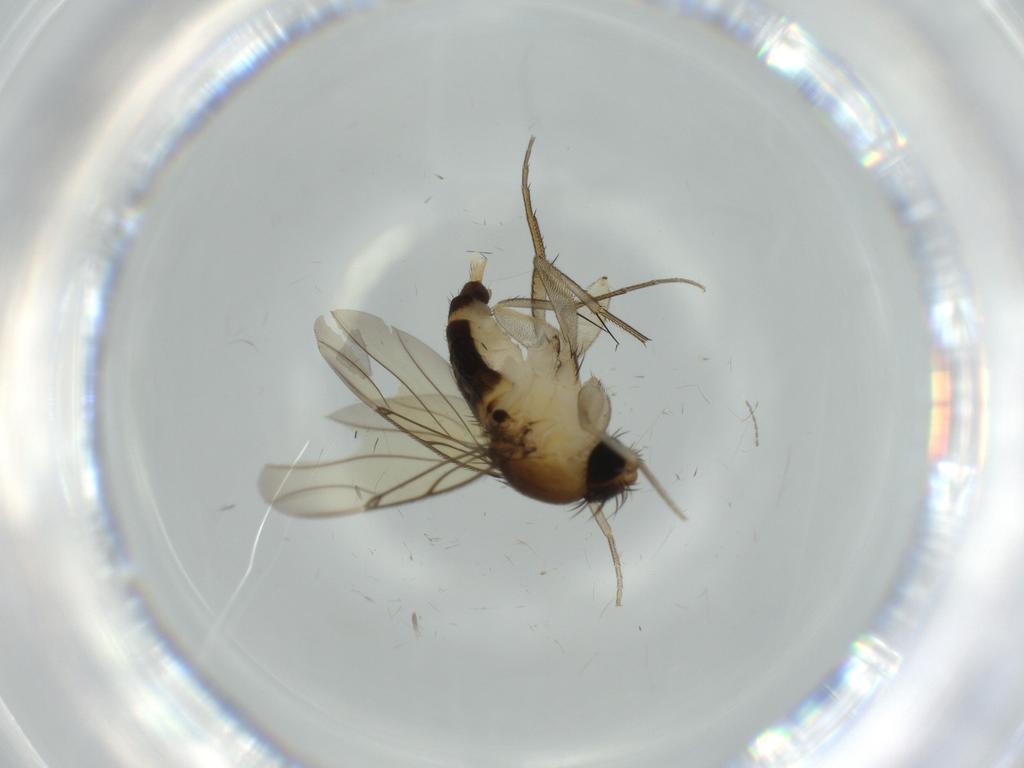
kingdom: Animalia
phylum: Arthropoda
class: Insecta
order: Diptera
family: Phoridae
